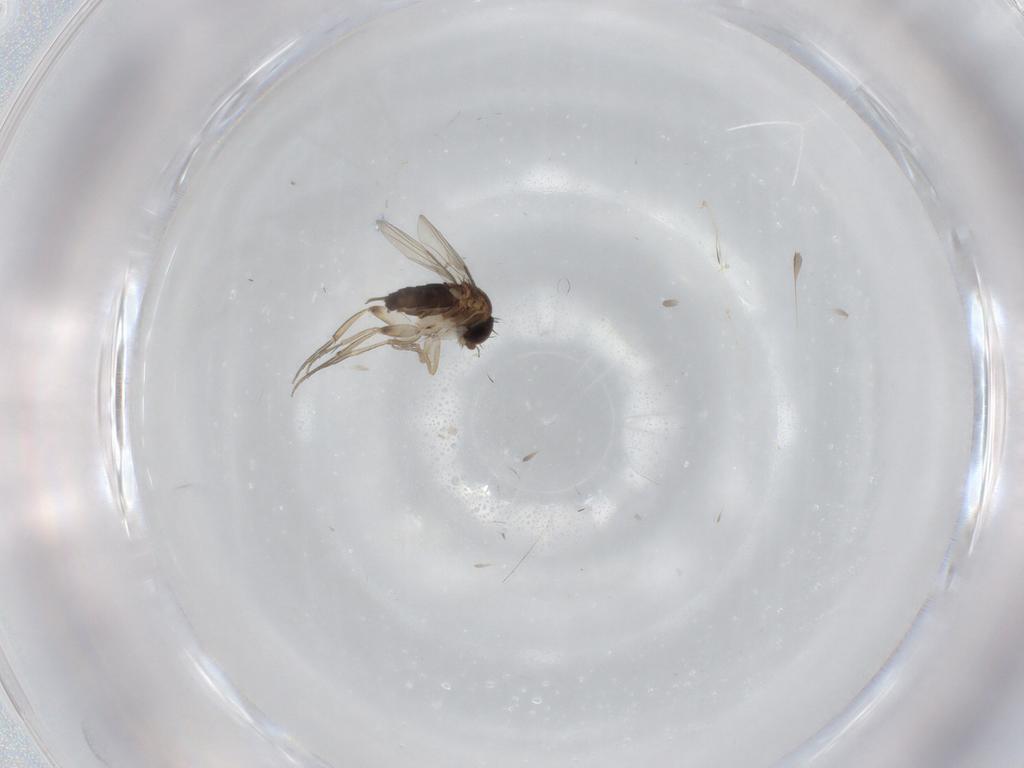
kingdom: Animalia
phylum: Arthropoda
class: Insecta
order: Diptera
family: Phoridae
